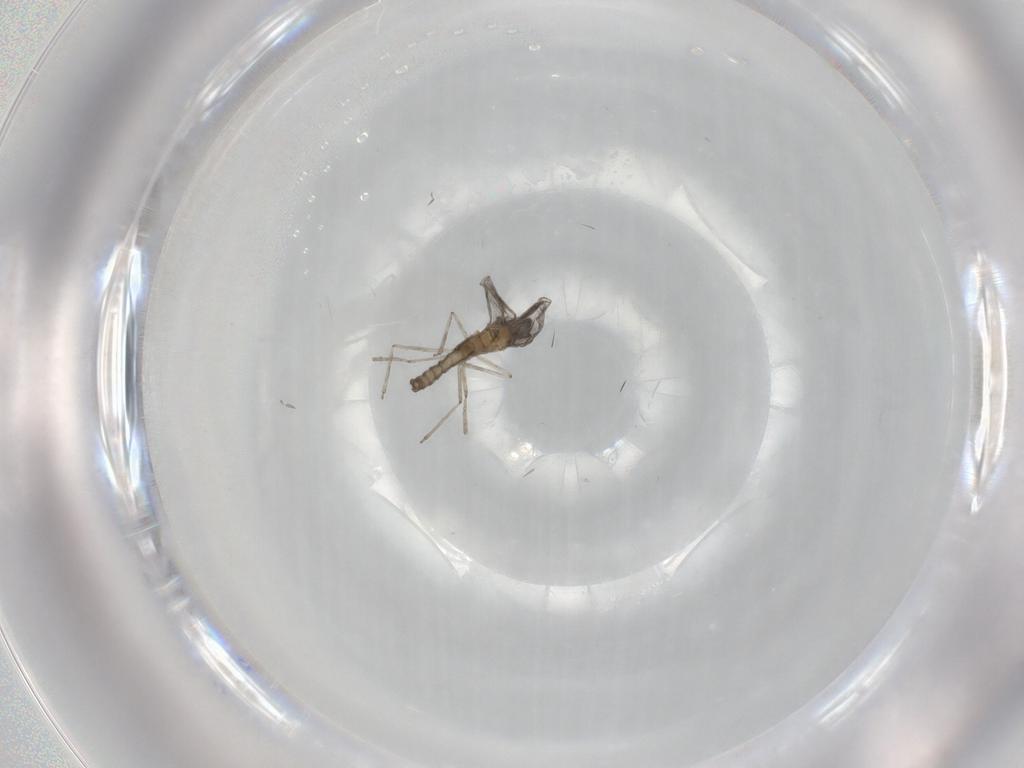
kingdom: Animalia
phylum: Arthropoda
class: Insecta
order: Diptera
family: Cecidomyiidae
